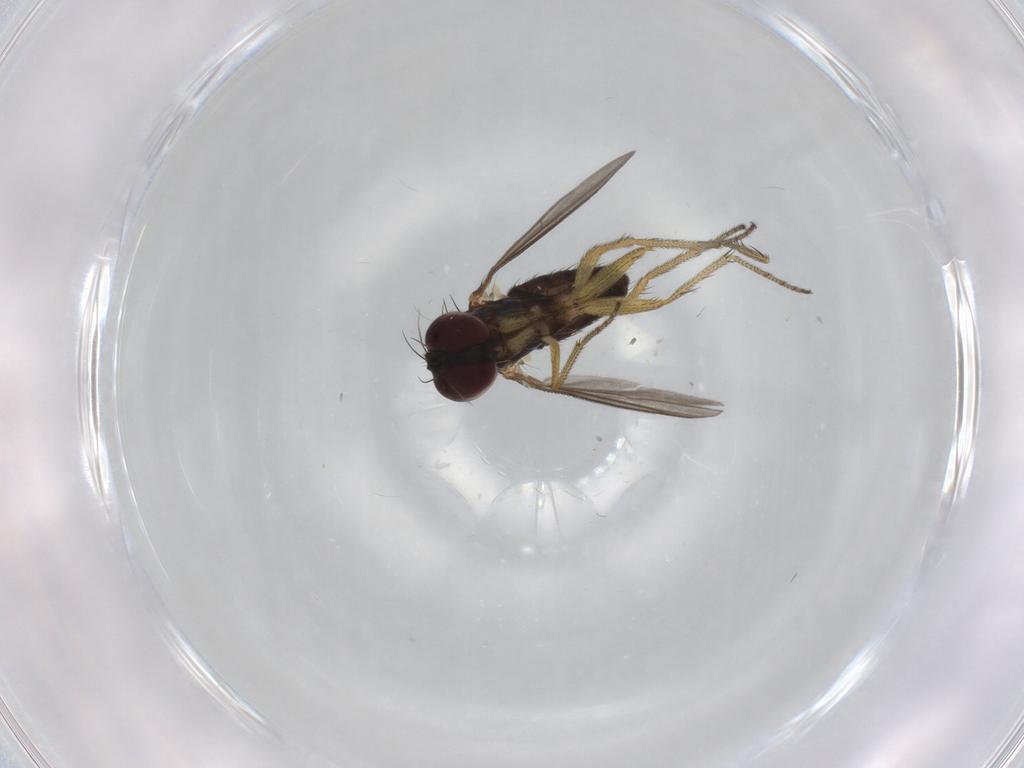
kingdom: Animalia
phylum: Arthropoda
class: Insecta
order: Diptera
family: Dolichopodidae
